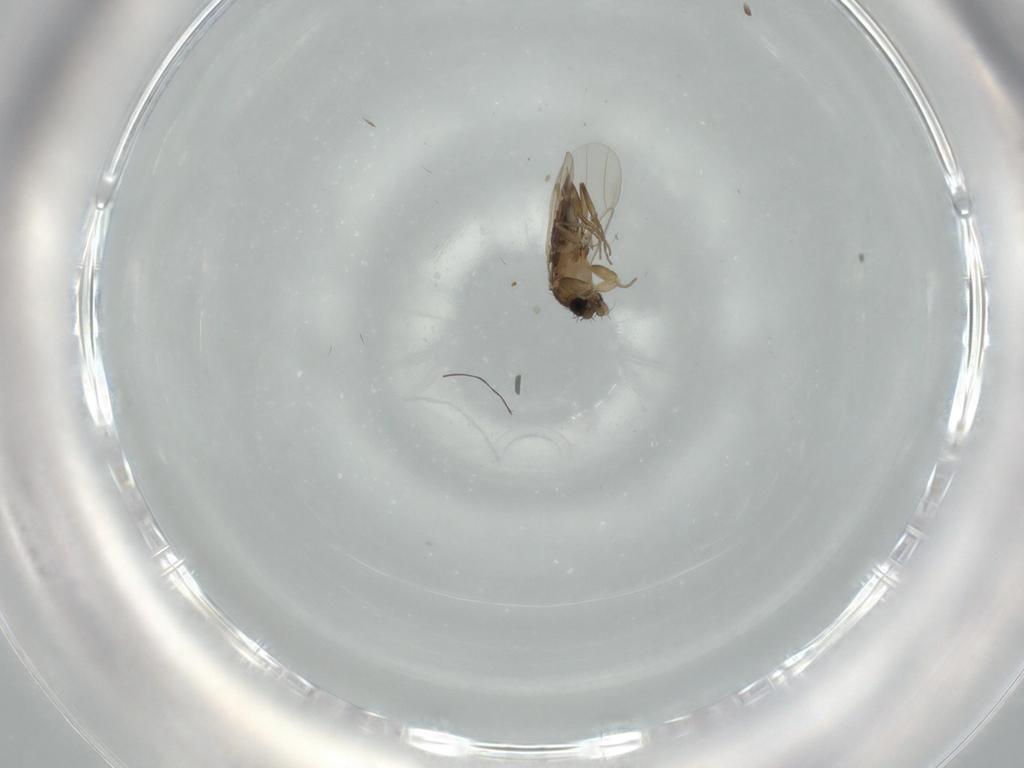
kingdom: Animalia
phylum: Arthropoda
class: Insecta
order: Diptera
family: Phoridae
